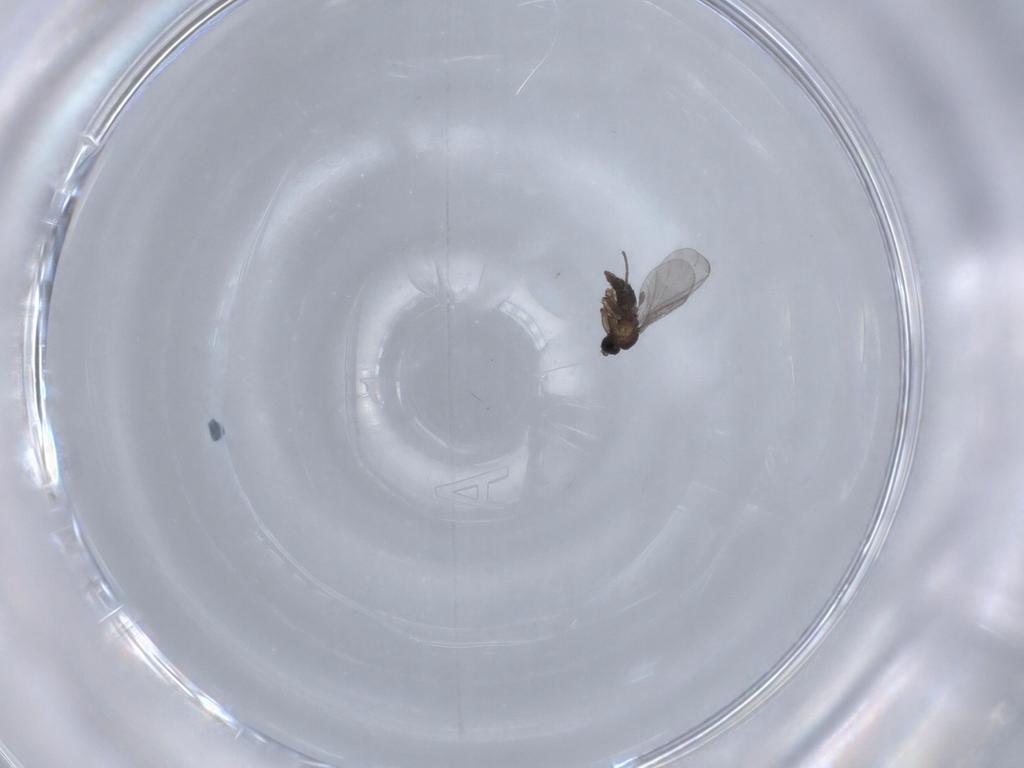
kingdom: Animalia
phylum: Arthropoda
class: Insecta
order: Diptera
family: Sciaridae
